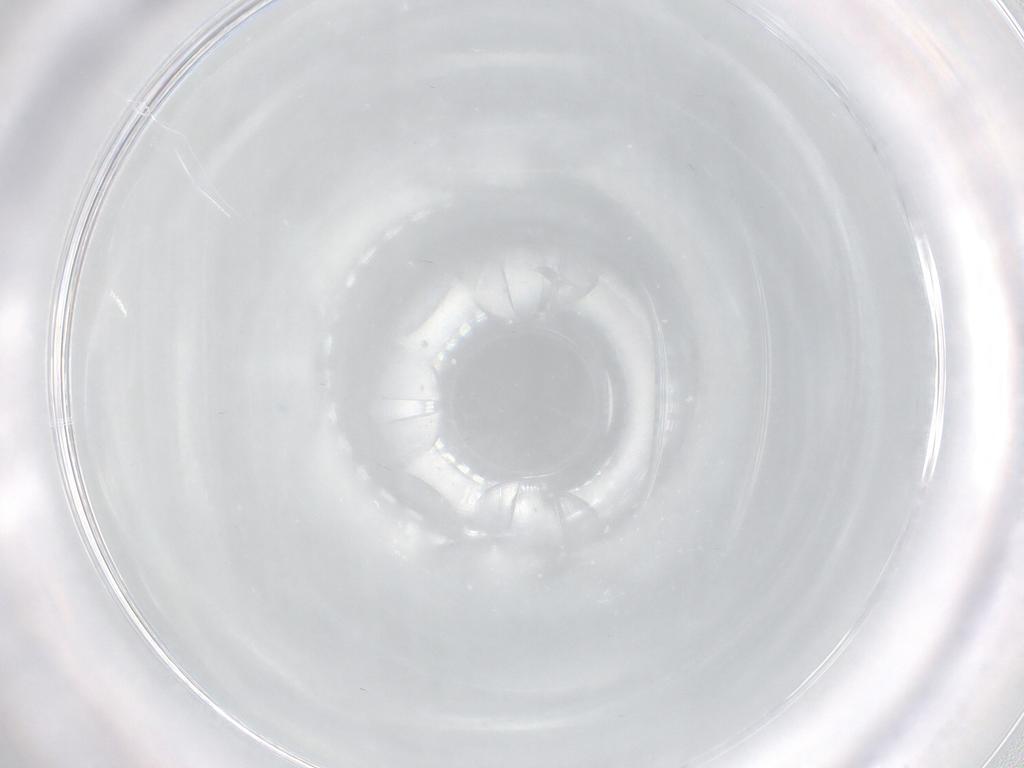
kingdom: Animalia
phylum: Arthropoda
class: Insecta
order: Diptera
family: Cecidomyiidae
